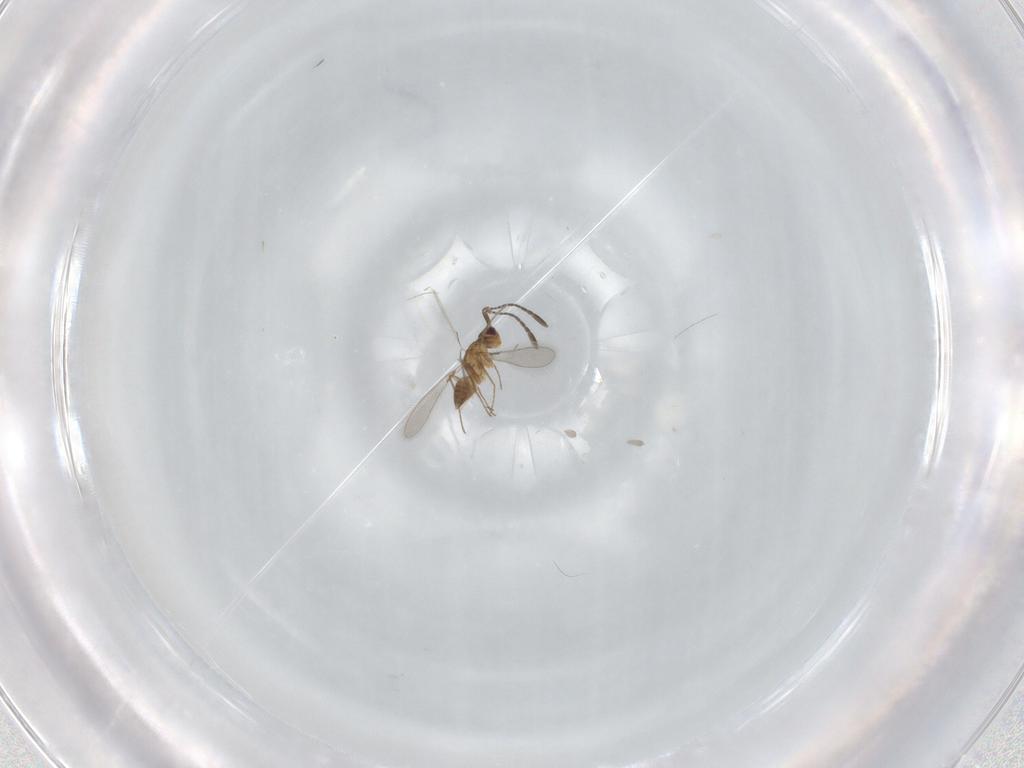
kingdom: Animalia
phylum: Arthropoda
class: Insecta
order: Hymenoptera
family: Mymaridae
